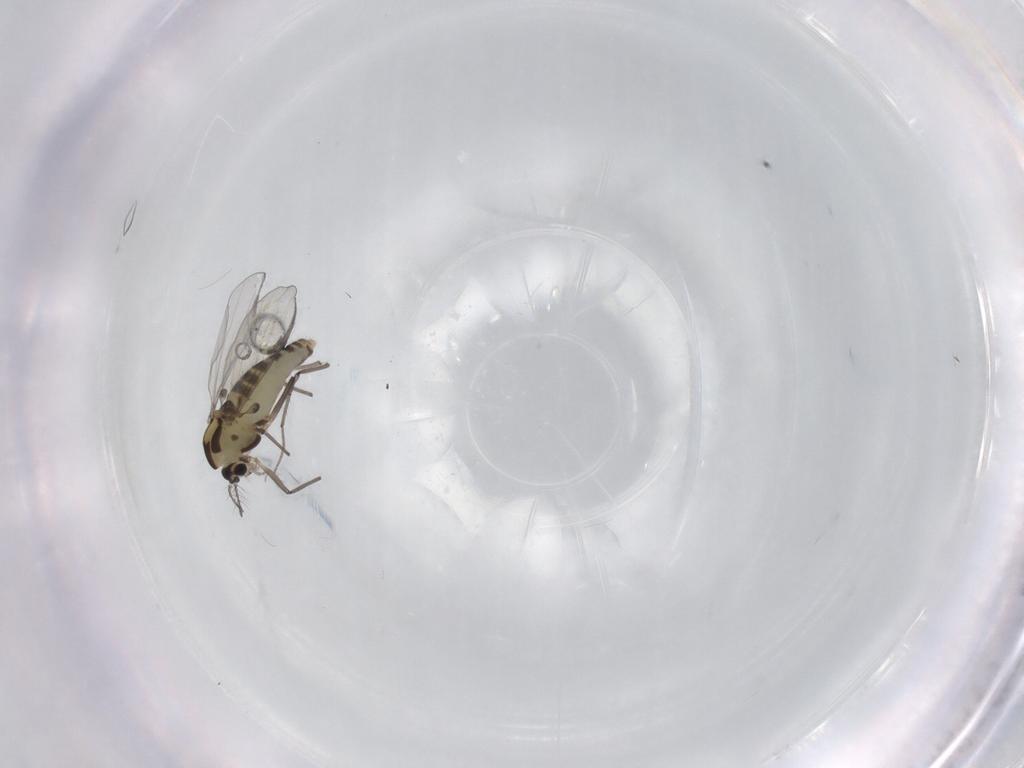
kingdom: Animalia
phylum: Arthropoda
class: Insecta
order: Diptera
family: Chironomidae
